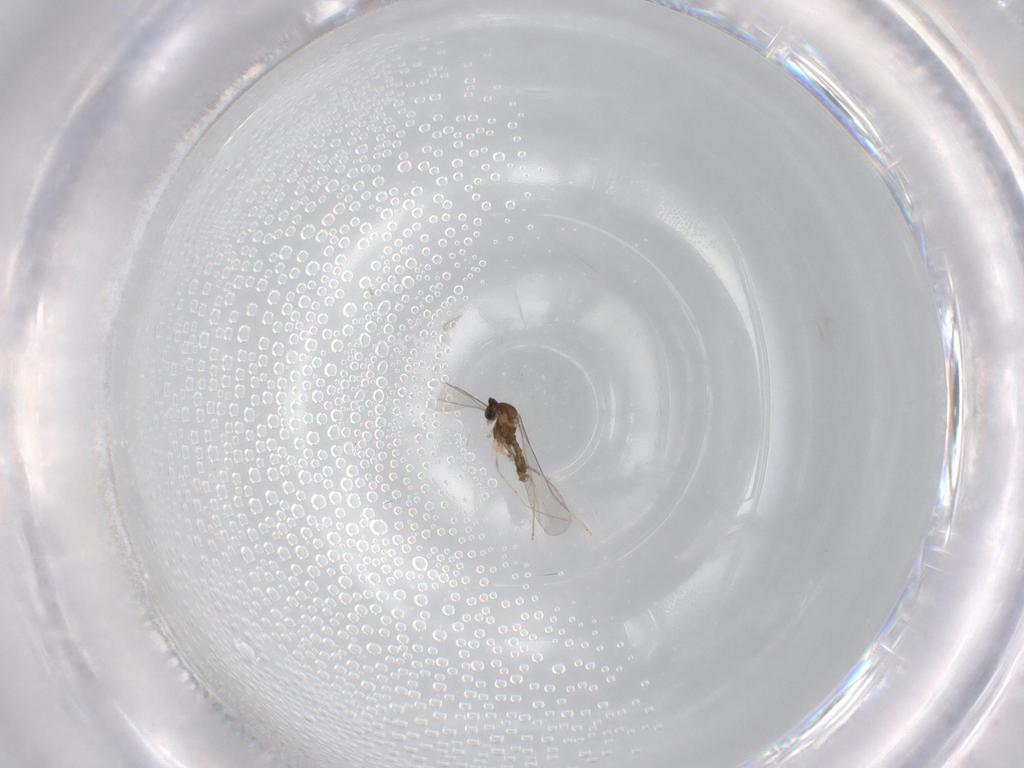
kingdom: Animalia
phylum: Arthropoda
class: Insecta
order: Diptera
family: Cecidomyiidae
